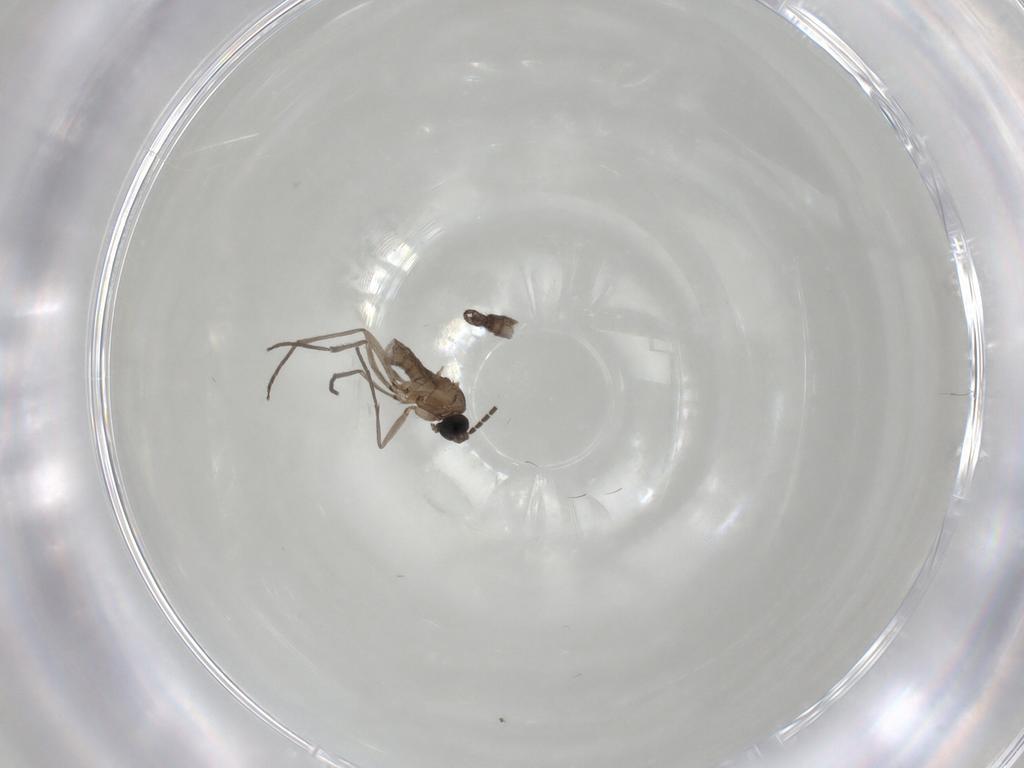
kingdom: Animalia
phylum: Arthropoda
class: Insecta
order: Diptera
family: Sciaridae
